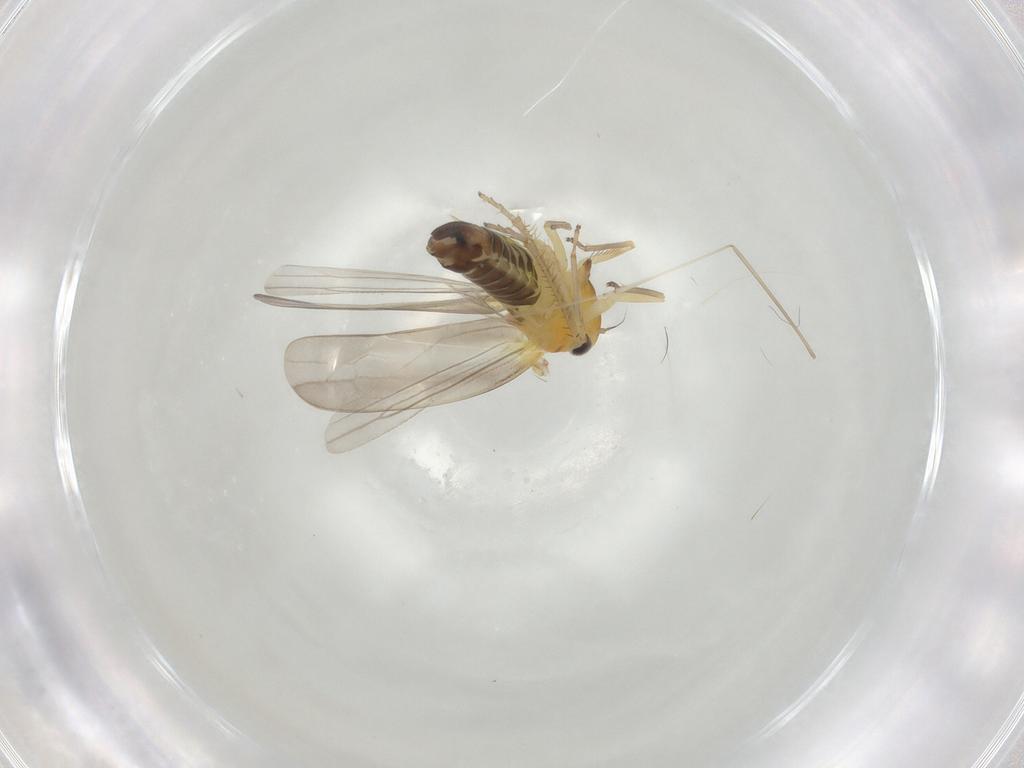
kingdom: Animalia
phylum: Arthropoda
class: Insecta
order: Hemiptera
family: Cicadellidae
